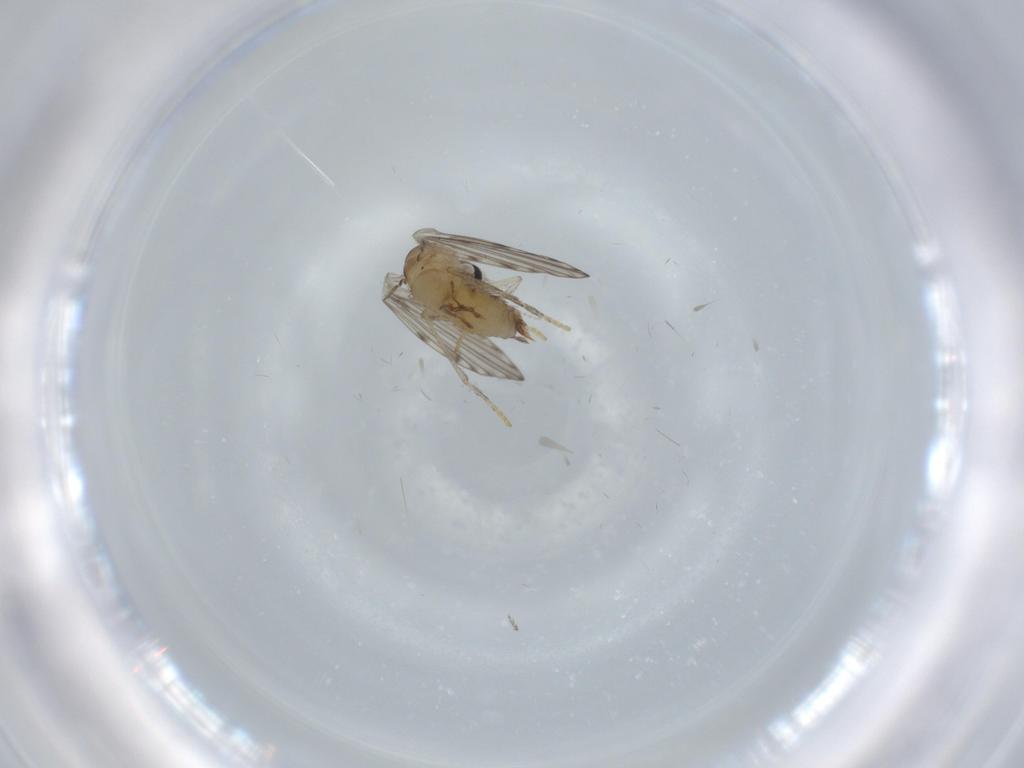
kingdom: Animalia
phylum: Arthropoda
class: Insecta
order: Diptera
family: Psychodidae
